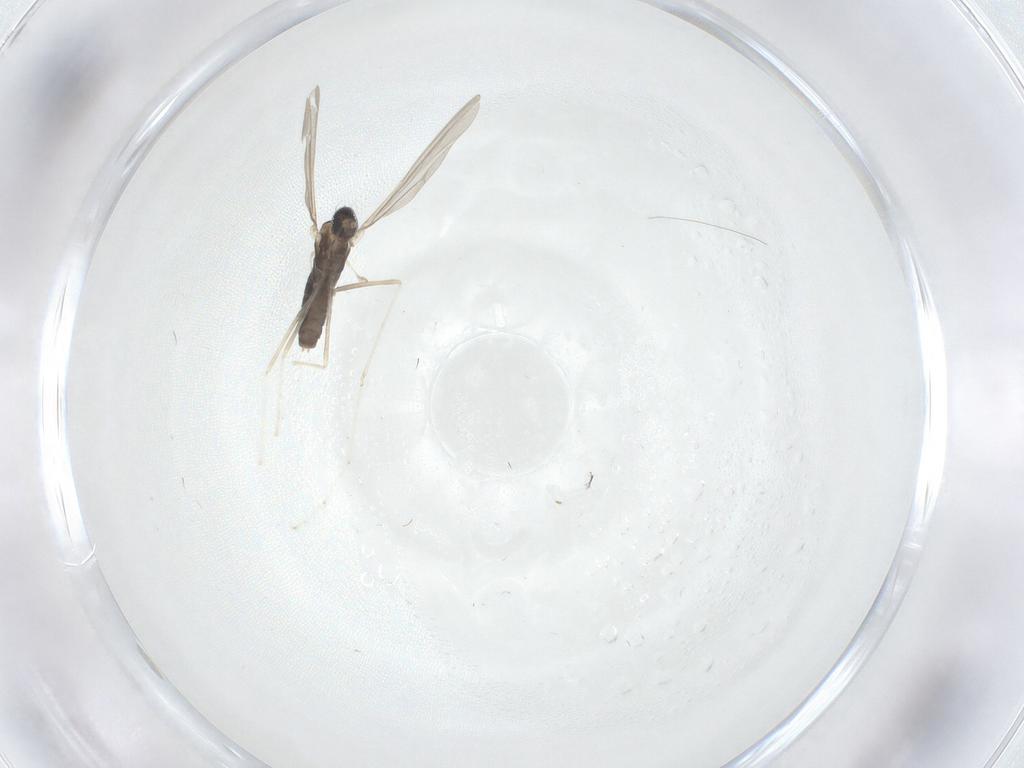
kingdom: Animalia
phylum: Arthropoda
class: Insecta
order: Diptera
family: Cecidomyiidae
